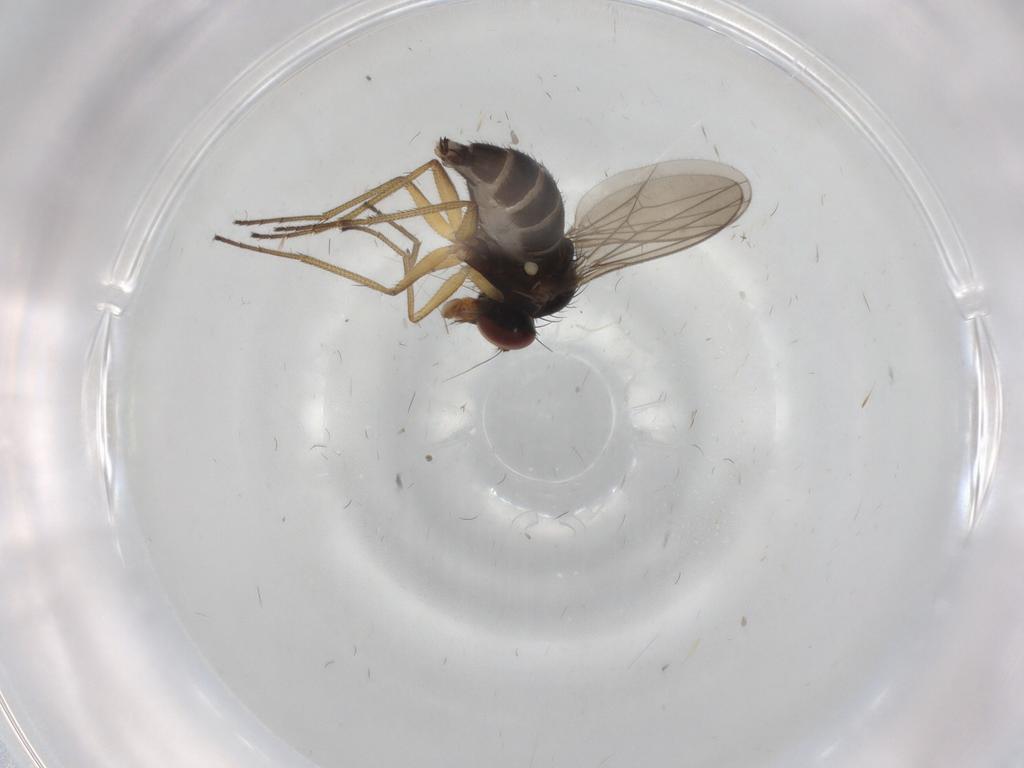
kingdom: Animalia
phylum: Arthropoda
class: Insecta
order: Diptera
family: Dolichopodidae
